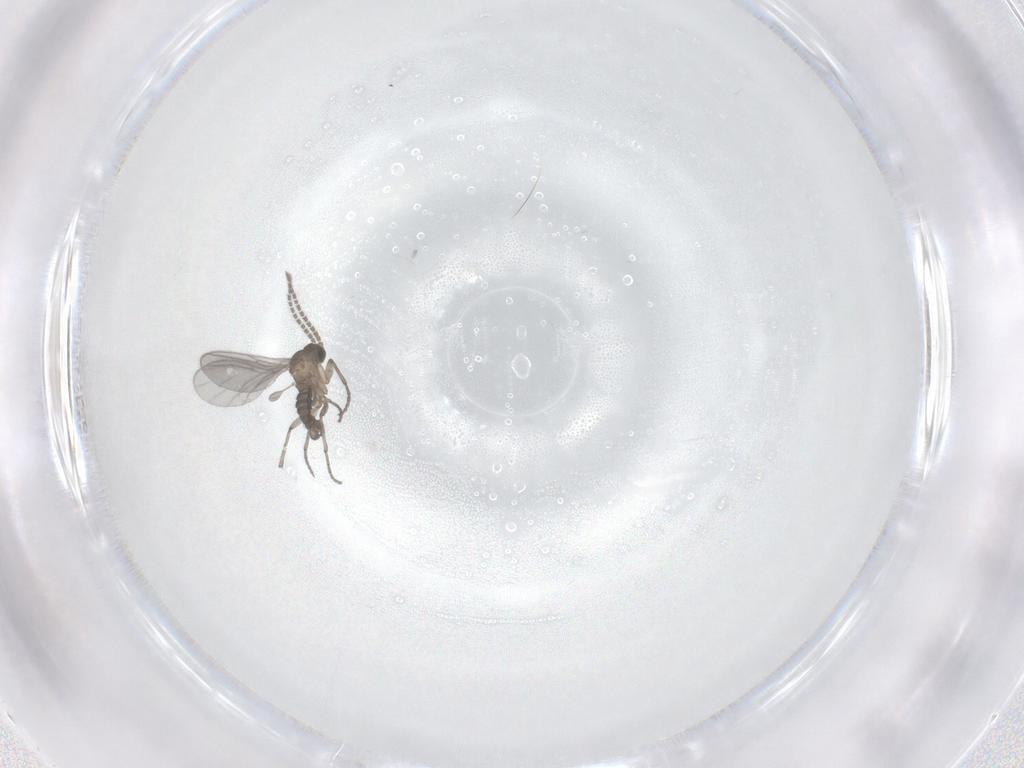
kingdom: Animalia
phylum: Arthropoda
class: Insecta
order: Diptera
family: Sciaridae
